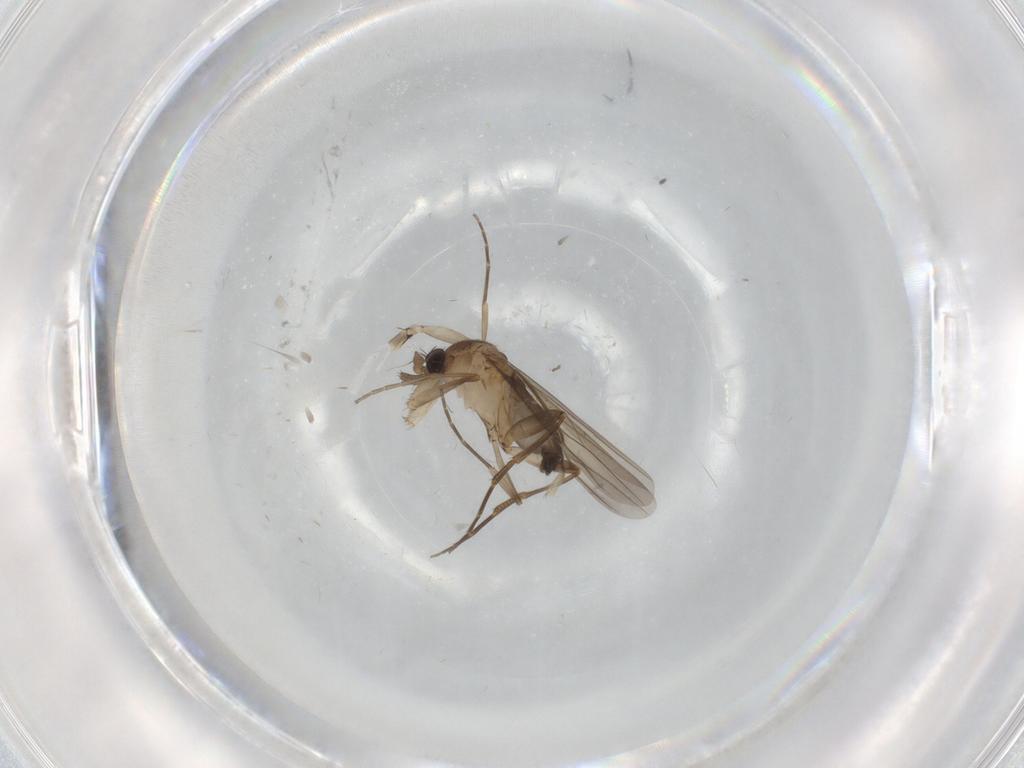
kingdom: Animalia
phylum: Arthropoda
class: Insecta
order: Diptera
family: Phoridae
